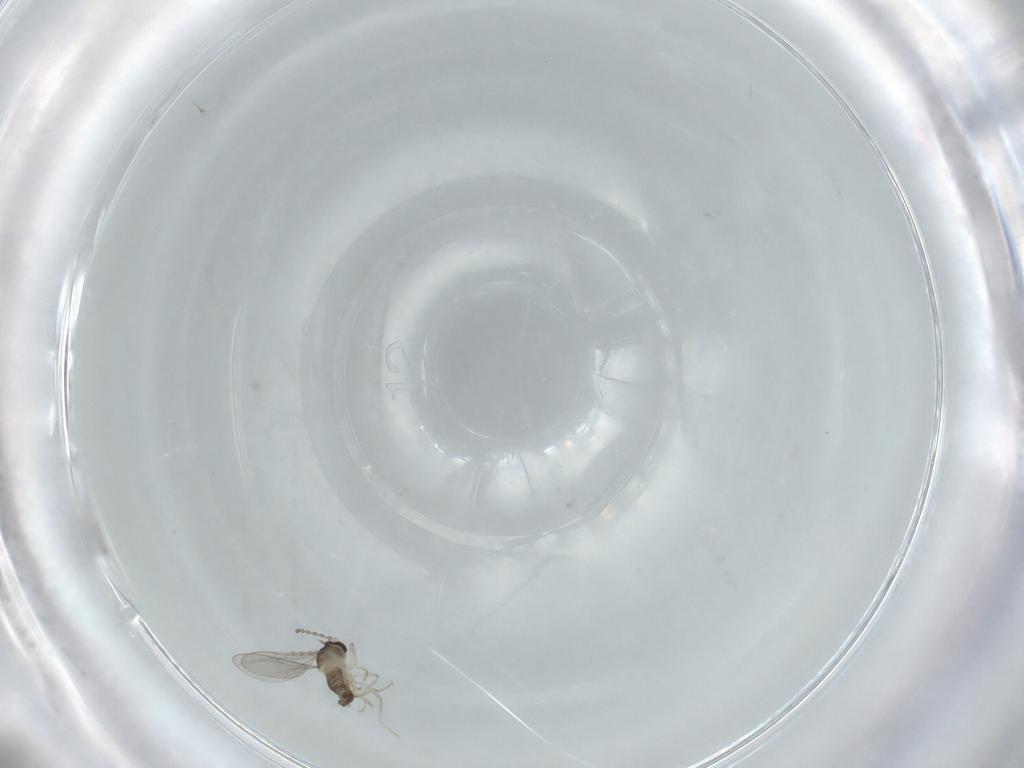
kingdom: Animalia
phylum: Arthropoda
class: Insecta
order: Diptera
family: Cecidomyiidae
